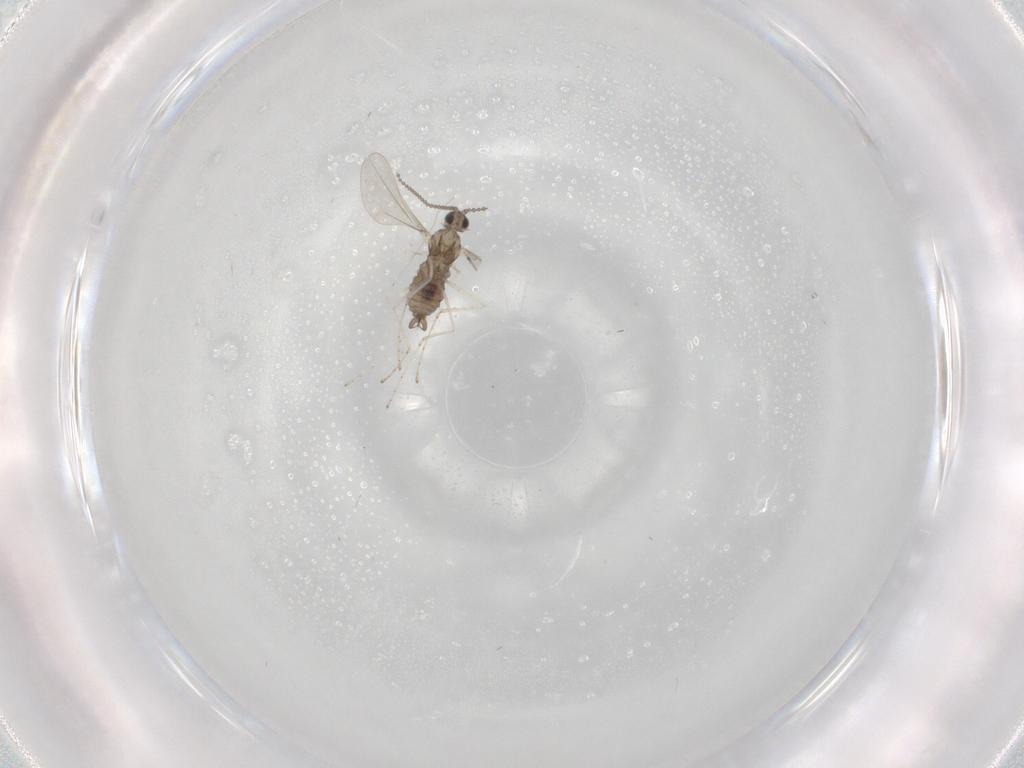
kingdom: Animalia
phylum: Arthropoda
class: Insecta
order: Diptera
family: Cecidomyiidae
